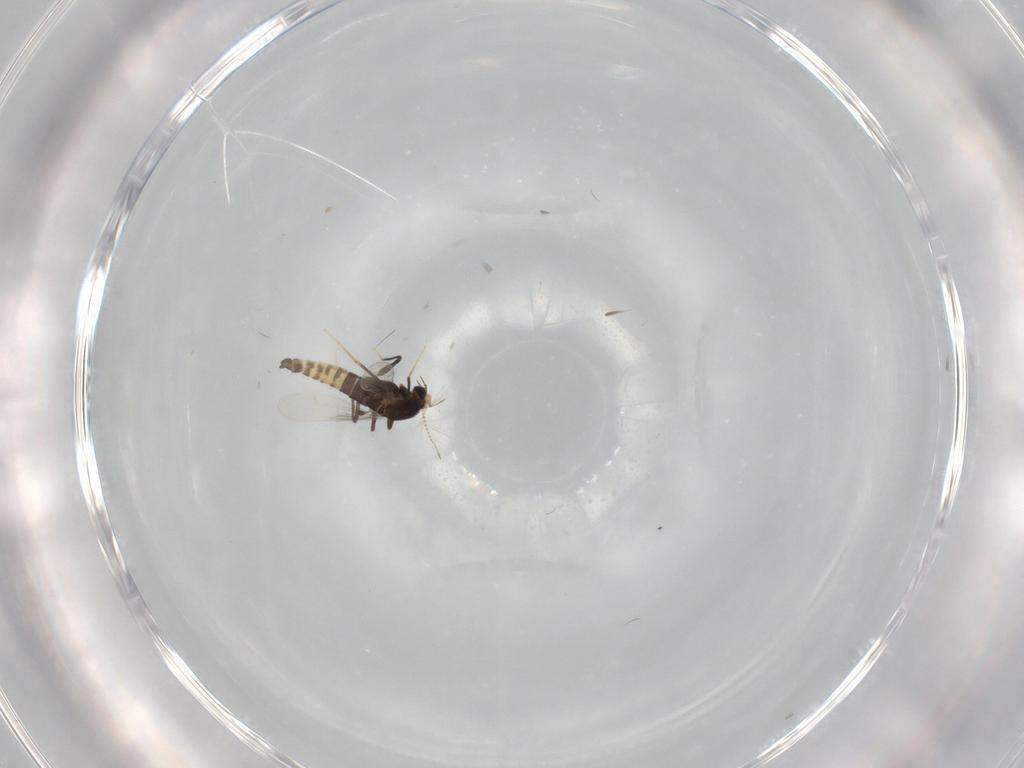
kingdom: Animalia
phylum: Arthropoda
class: Insecta
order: Diptera
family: Chironomidae
